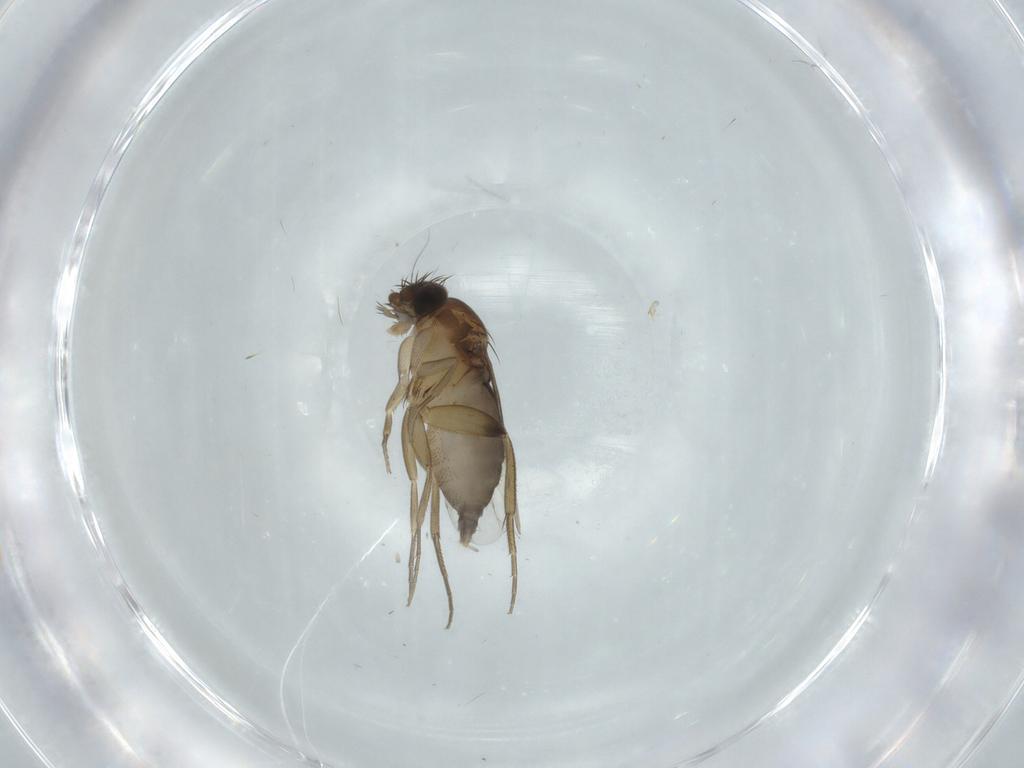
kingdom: Animalia
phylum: Arthropoda
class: Insecta
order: Diptera
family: Phoridae
